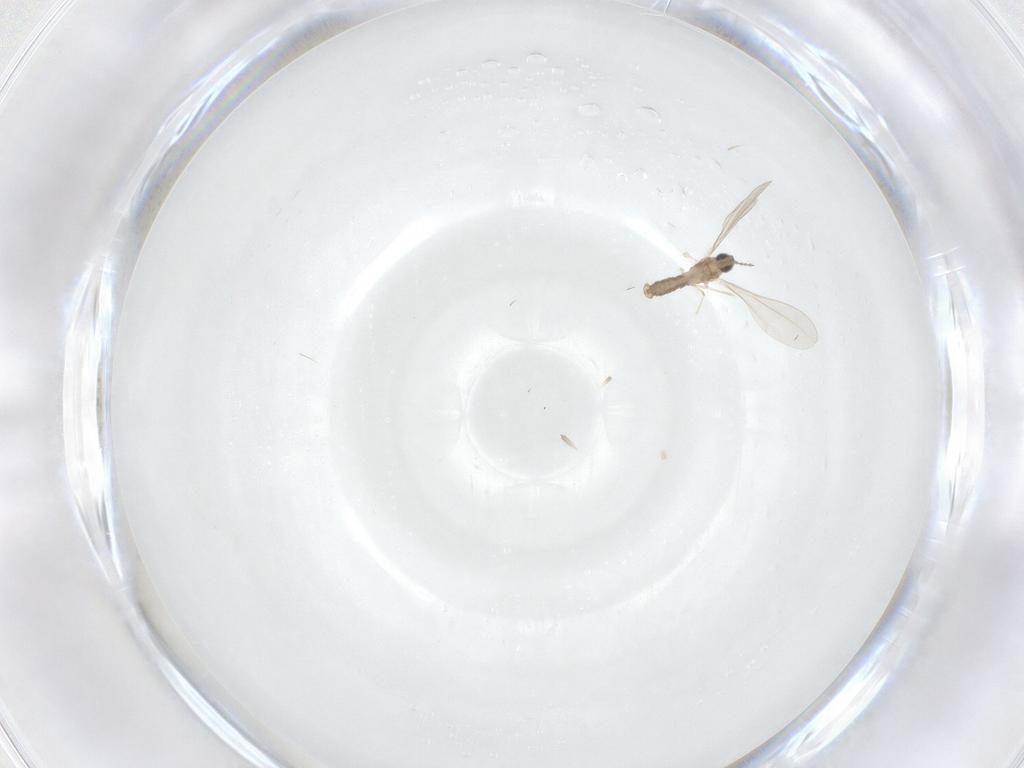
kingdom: Animalia
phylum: Arthropoda
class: Insecta
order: Diptera
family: Cecidomyiidae
